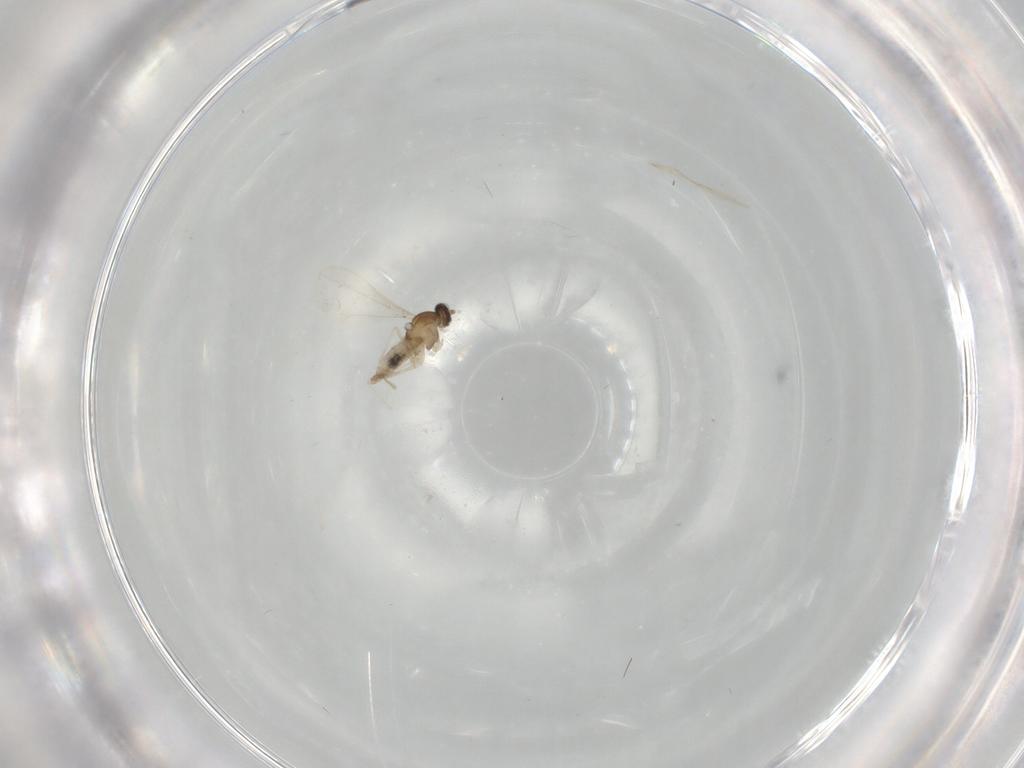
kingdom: Animalia
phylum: Arthropoda
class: Insecta
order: Diptera
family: Cecidomyiidae
